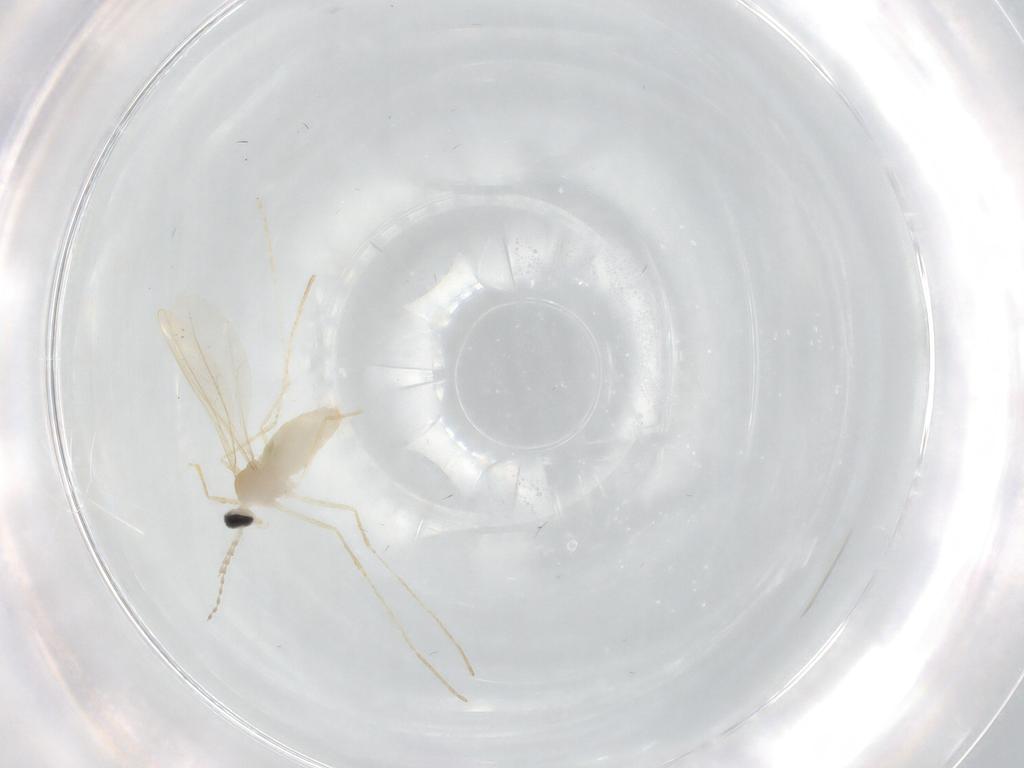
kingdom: Animalia
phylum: Arthropoda
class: Insecta
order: Diptera
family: Cecidomyiidae
